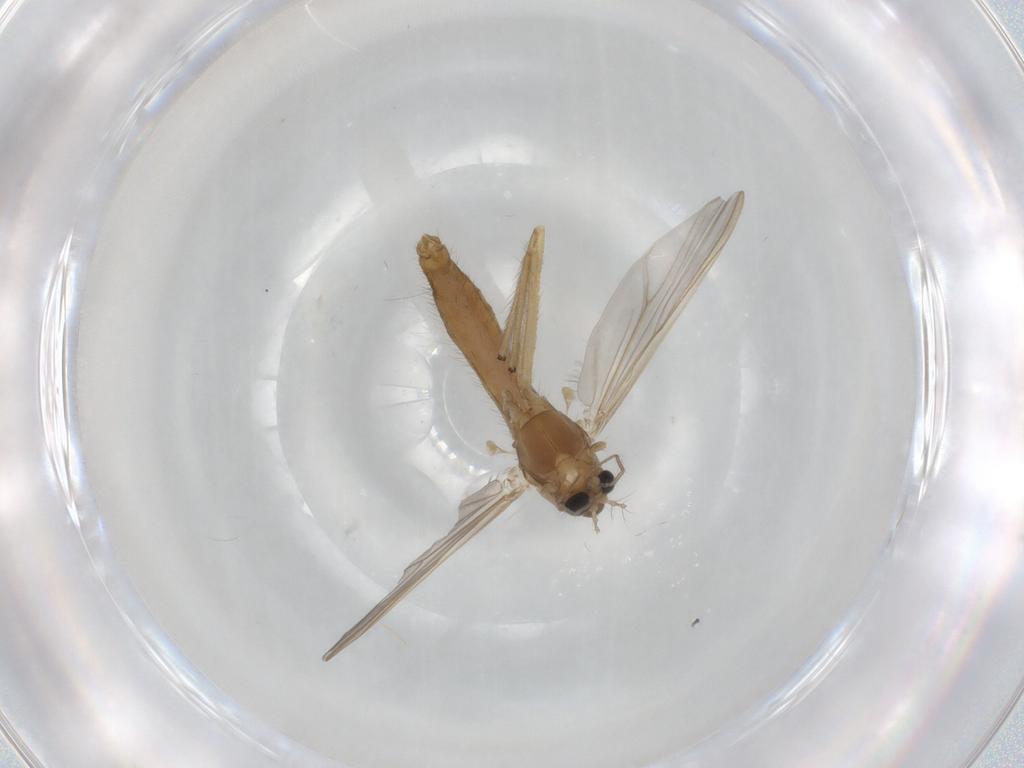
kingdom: Animalia
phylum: Arthropoda
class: Insecta
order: Diptera
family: Chironomidae
